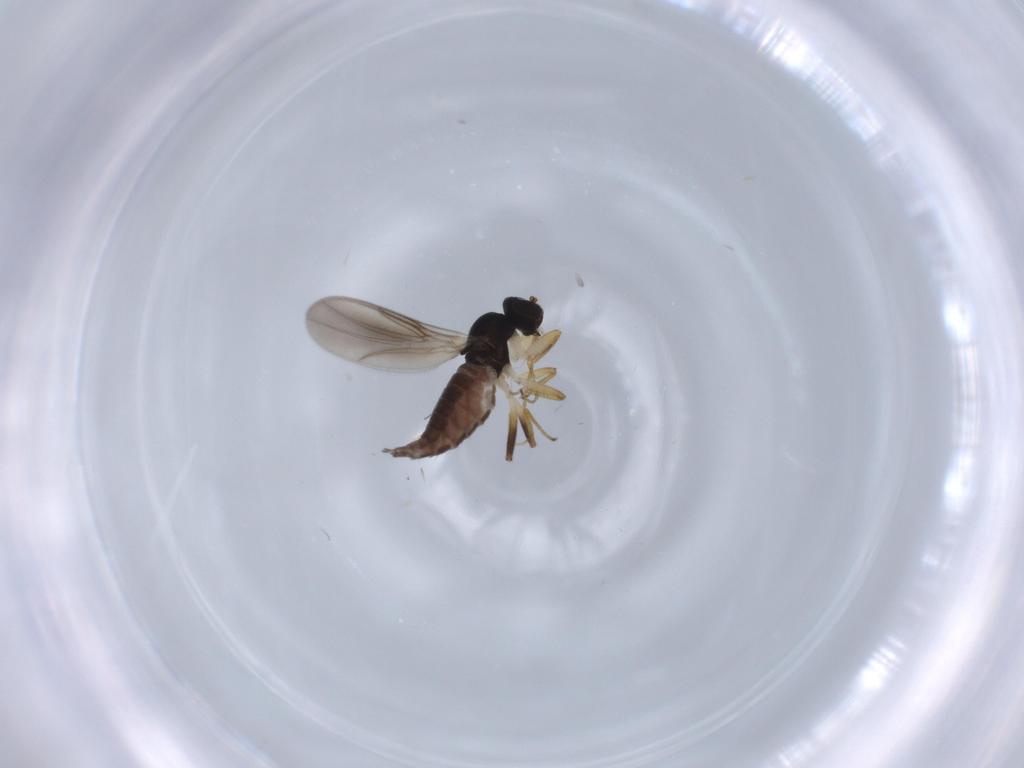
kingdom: Animalia
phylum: Arthropoda
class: Insecta
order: Diptera
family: Hybotidae
